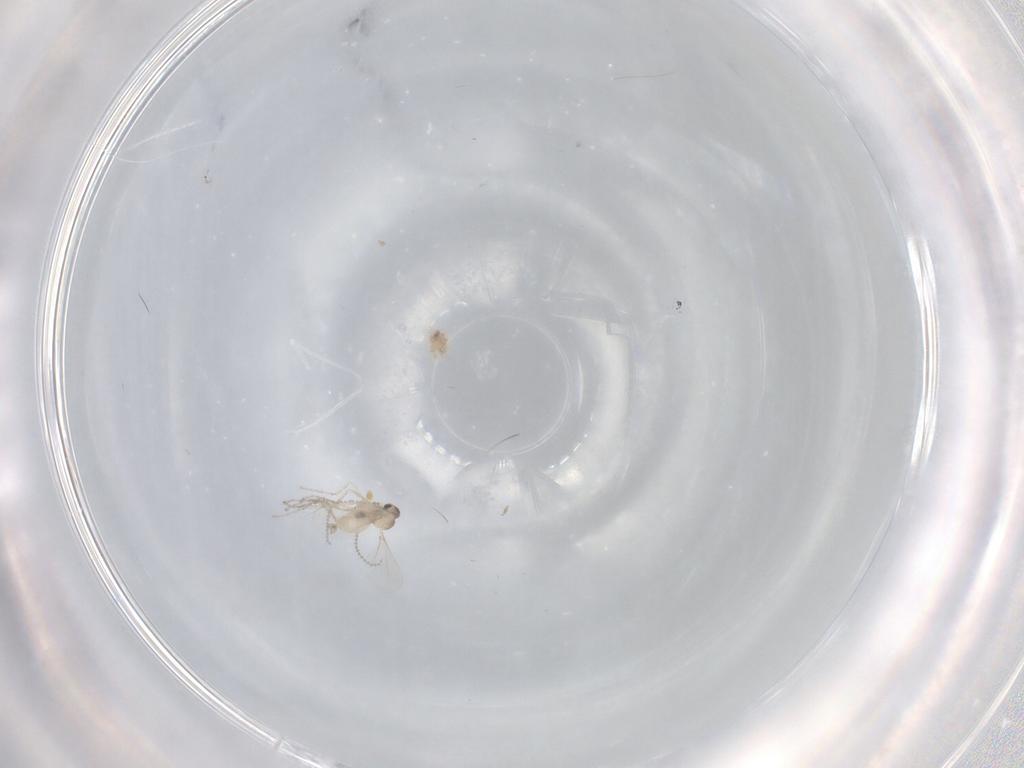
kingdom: Animalia
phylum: Arthropoda
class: Insecta
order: Diptera
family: Cecidomyiidae
